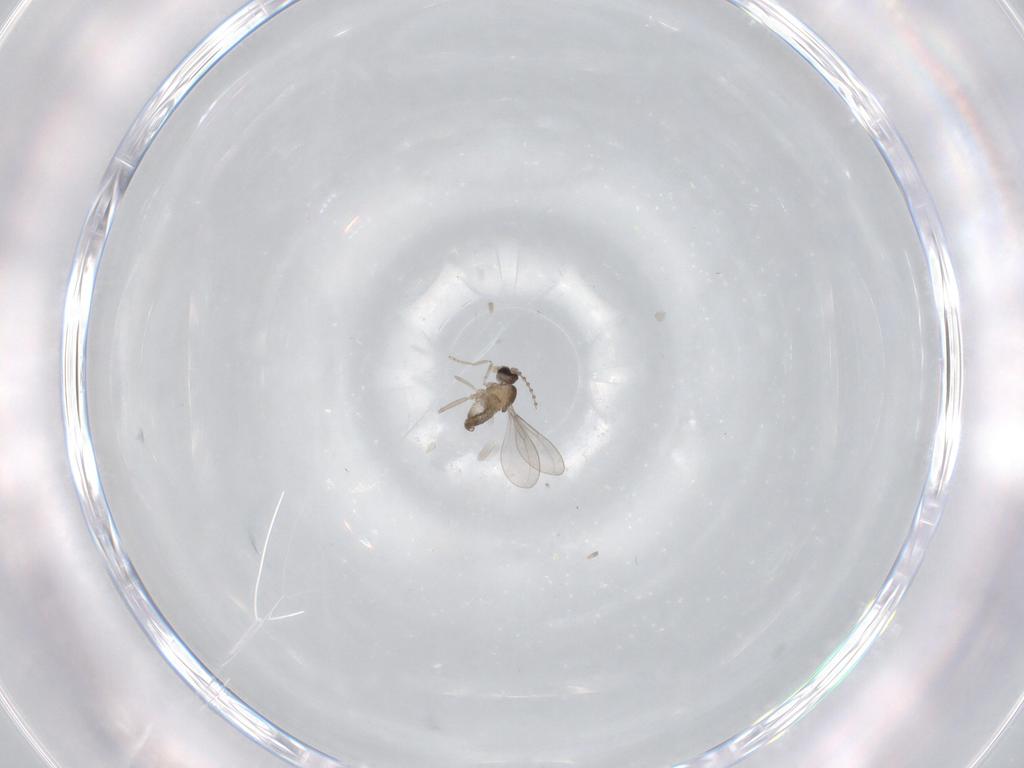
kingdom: Animalia
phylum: Arthropoda
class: Insecta
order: Diptera
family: Cecidomyiidae
